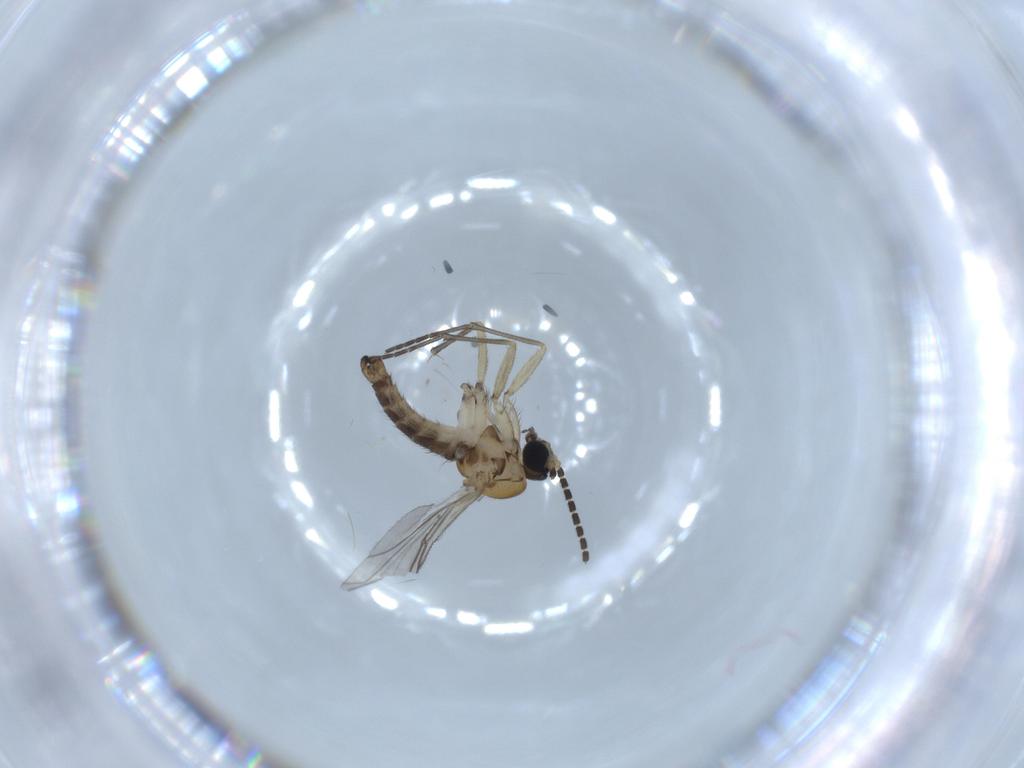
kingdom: Animalia
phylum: Arthropoda
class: Insecta
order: Diptera
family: Sciaridae
